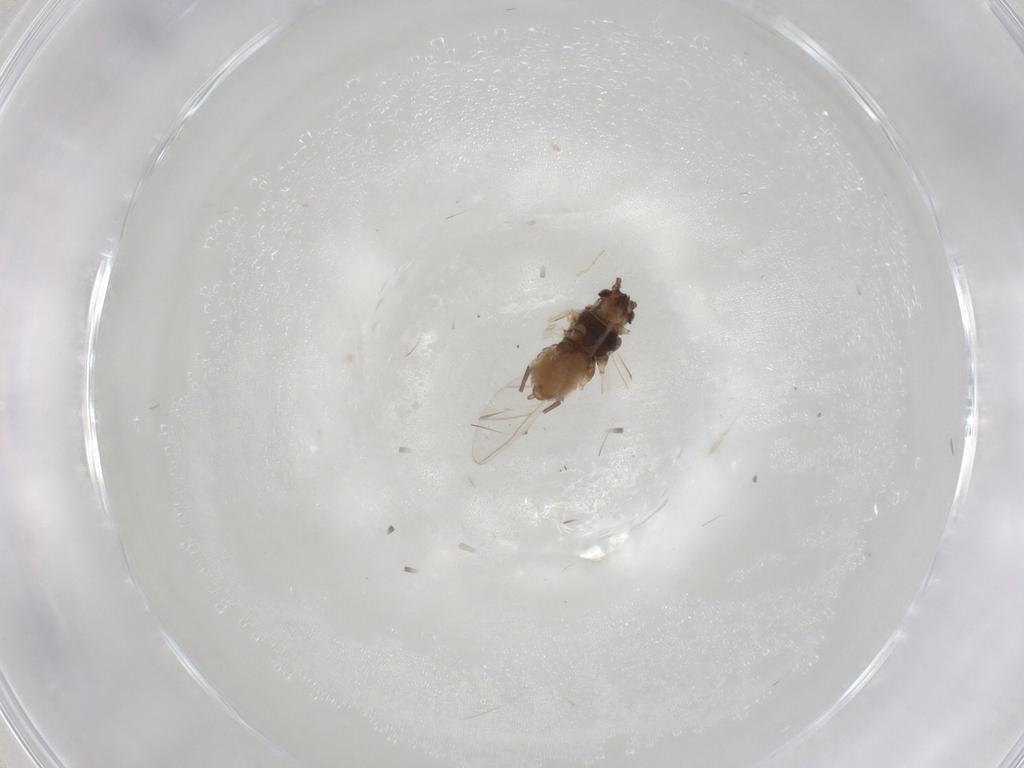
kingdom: Animalia
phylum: Arthropoda
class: Insecta
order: Hemiptera
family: Aphididae
